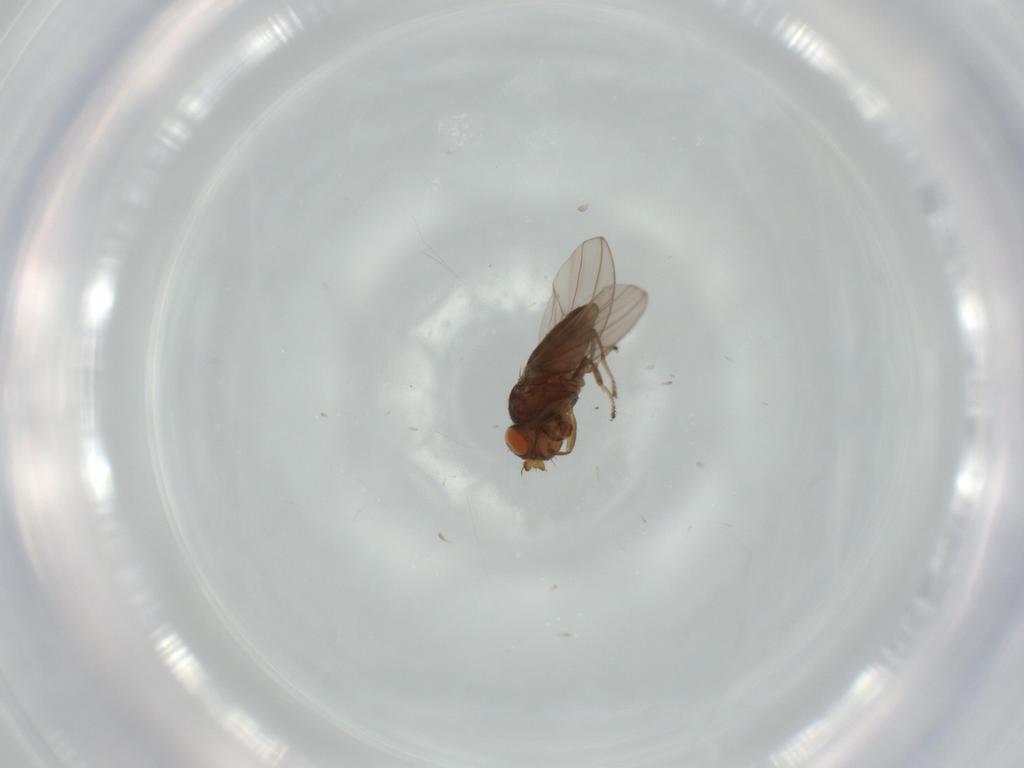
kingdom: Animalia
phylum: Arthropoda
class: Insecta
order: Diptera
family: Ephydridae
